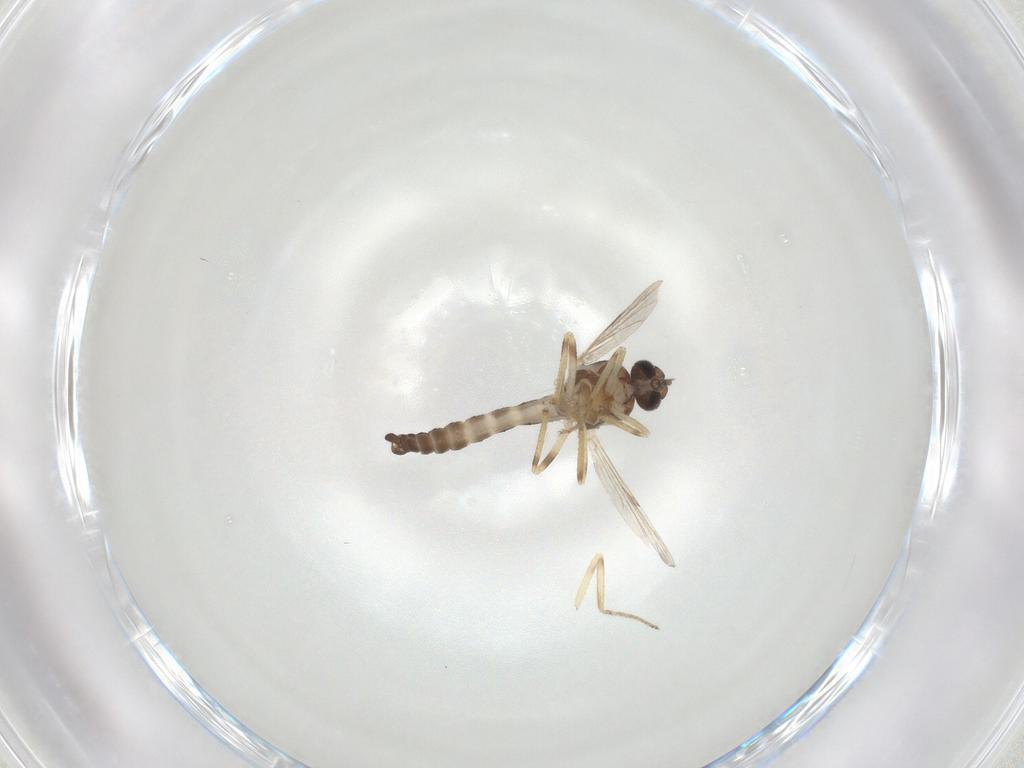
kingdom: Animalia
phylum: Arthropoda
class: Insecta
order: Diptera
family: Ceratopogonidae
